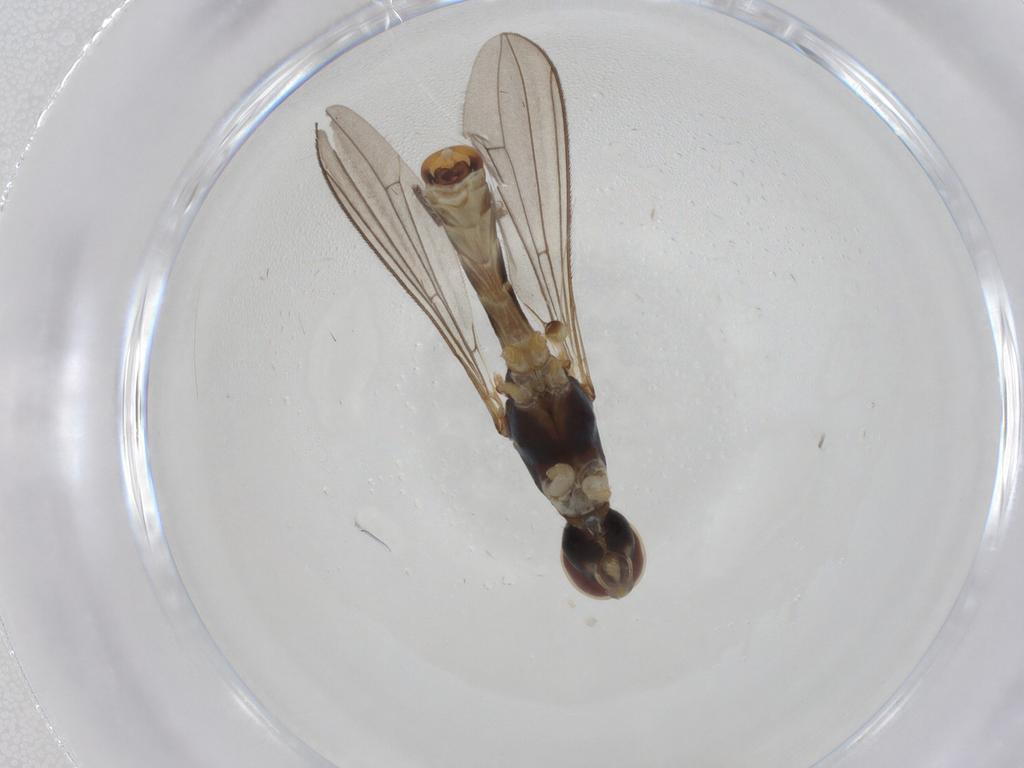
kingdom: Animalia
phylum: Arthropoda
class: Insecta
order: Diptera
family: Micropezidae
